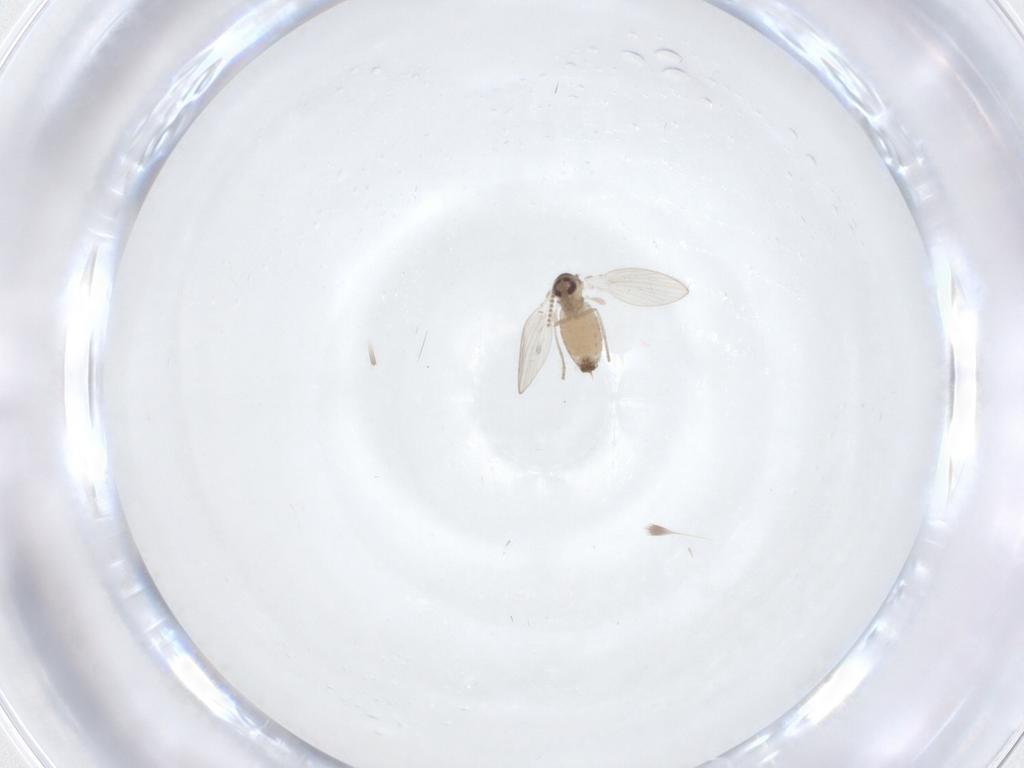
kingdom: Animalia
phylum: Arthropoda
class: Insecta
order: Diptera
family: Psychodidae
